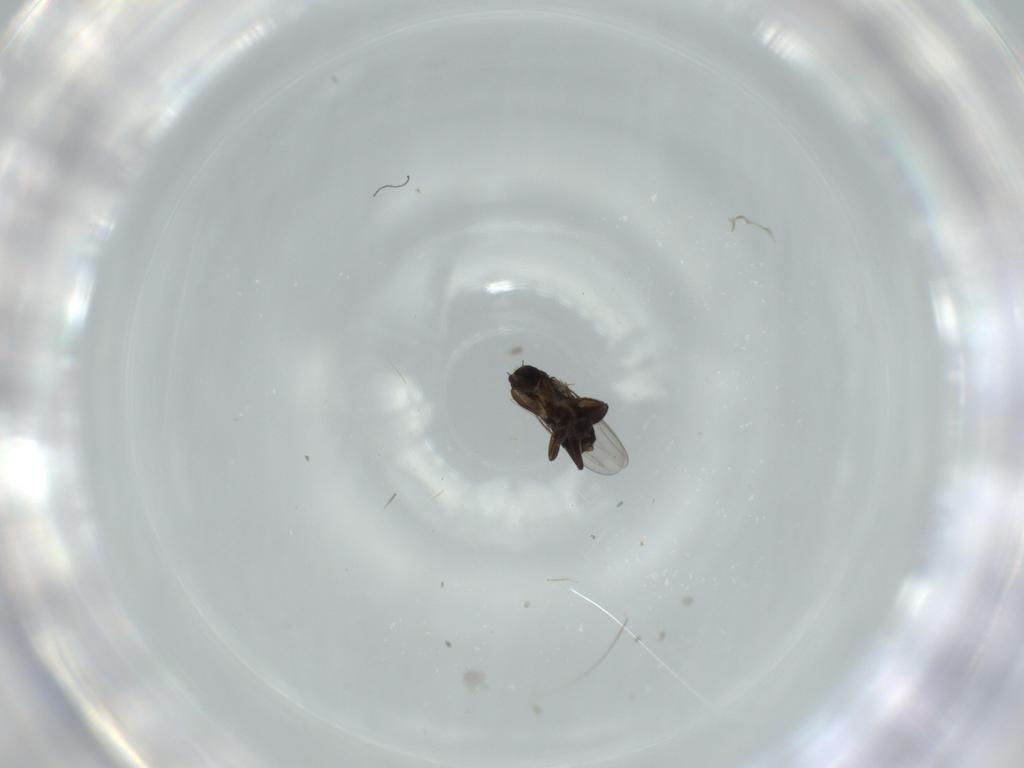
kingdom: Animalia
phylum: Arthropoda
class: Insecta
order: Diptera
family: Phoridae
